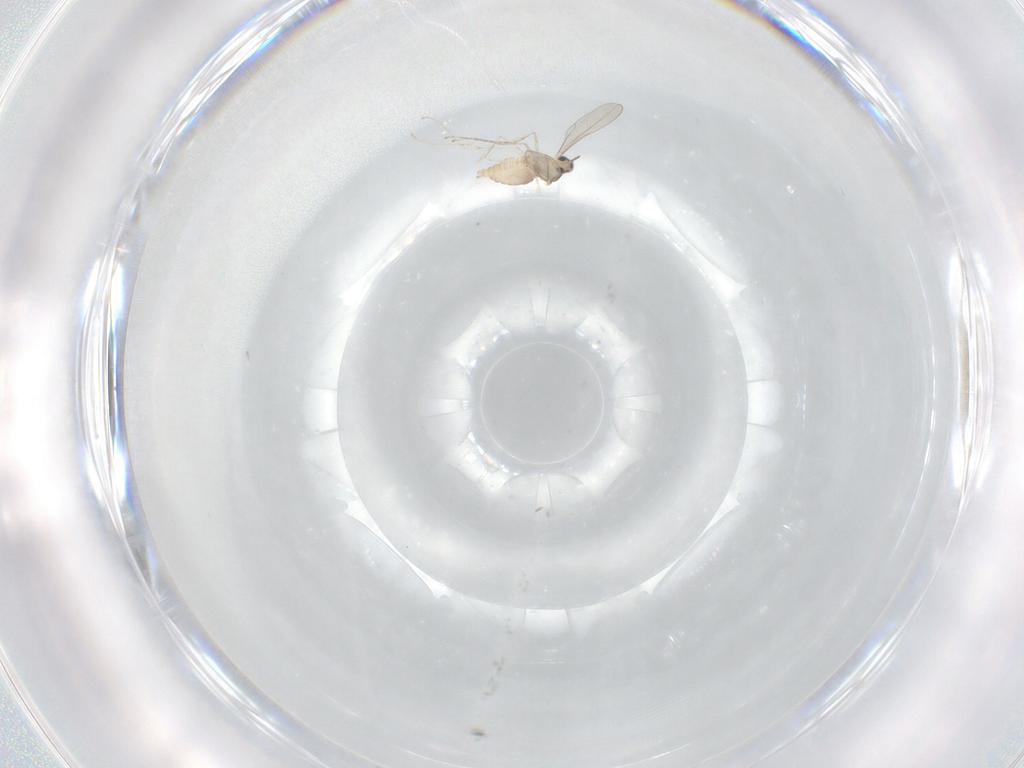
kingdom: Animalia
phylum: Arthropoda
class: Insecta
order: Diptera
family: Cecidomyiidae
